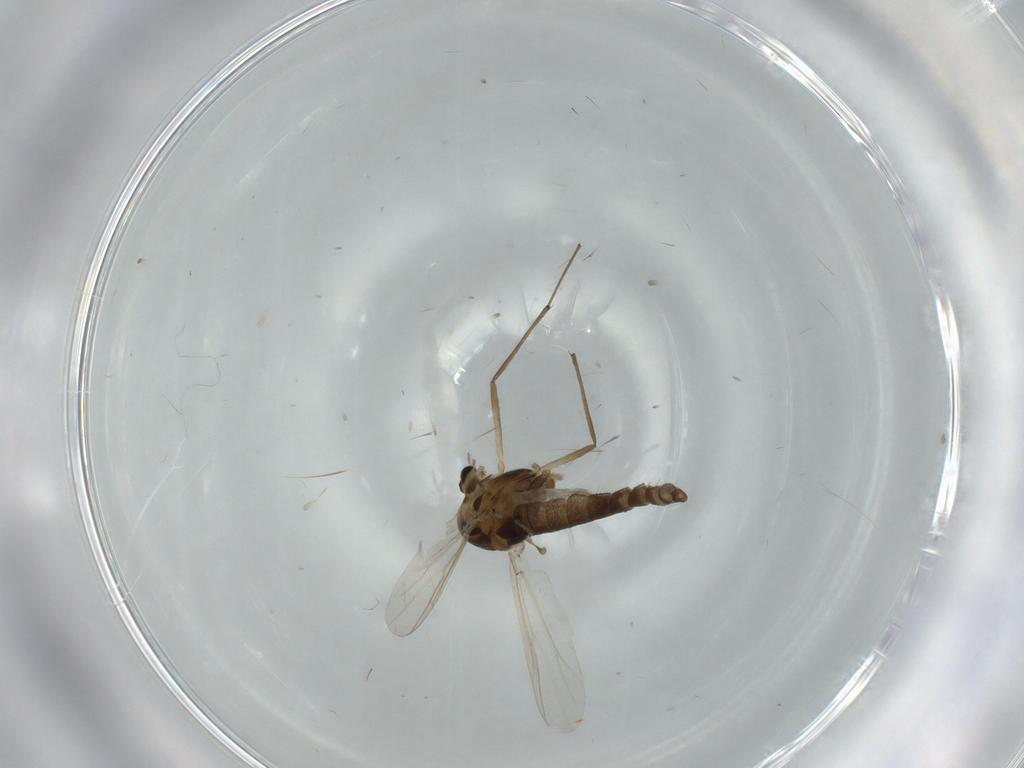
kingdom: Animalia
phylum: Arthropoda
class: Insecta
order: Diptera
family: Sciaridae
